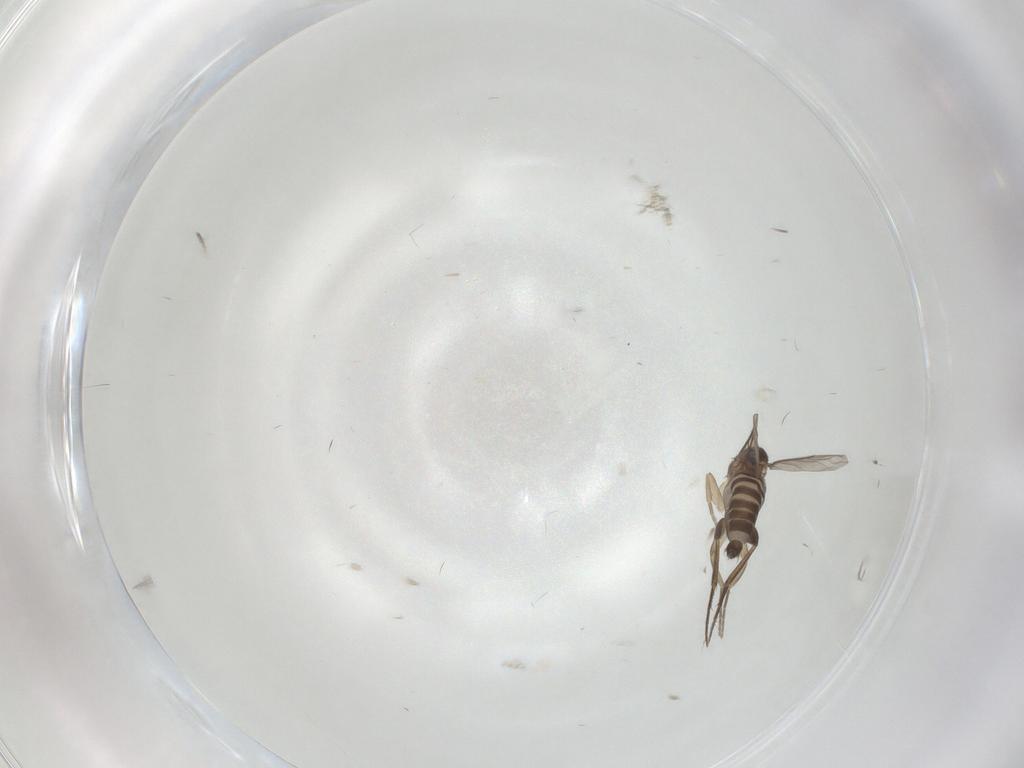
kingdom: Animalia
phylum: Arthropoda
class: Insecta
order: Diptera
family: Phoridae
